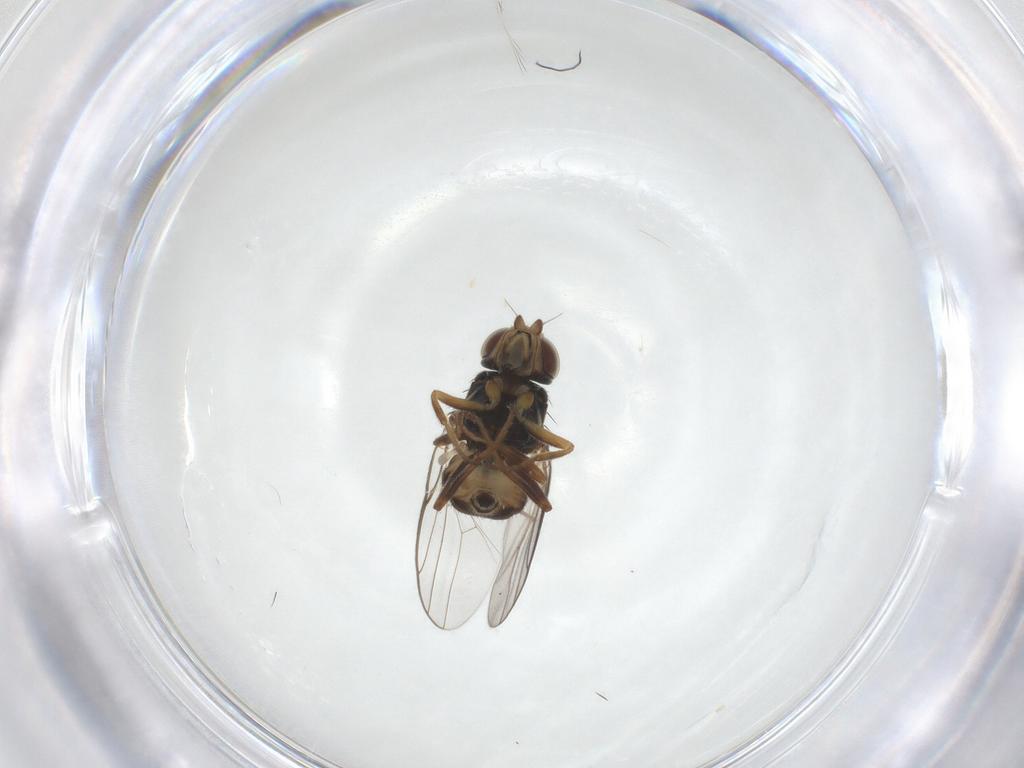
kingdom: Animalia
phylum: Arthropoda
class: Insecta
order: Diptera
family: Chloropidae
